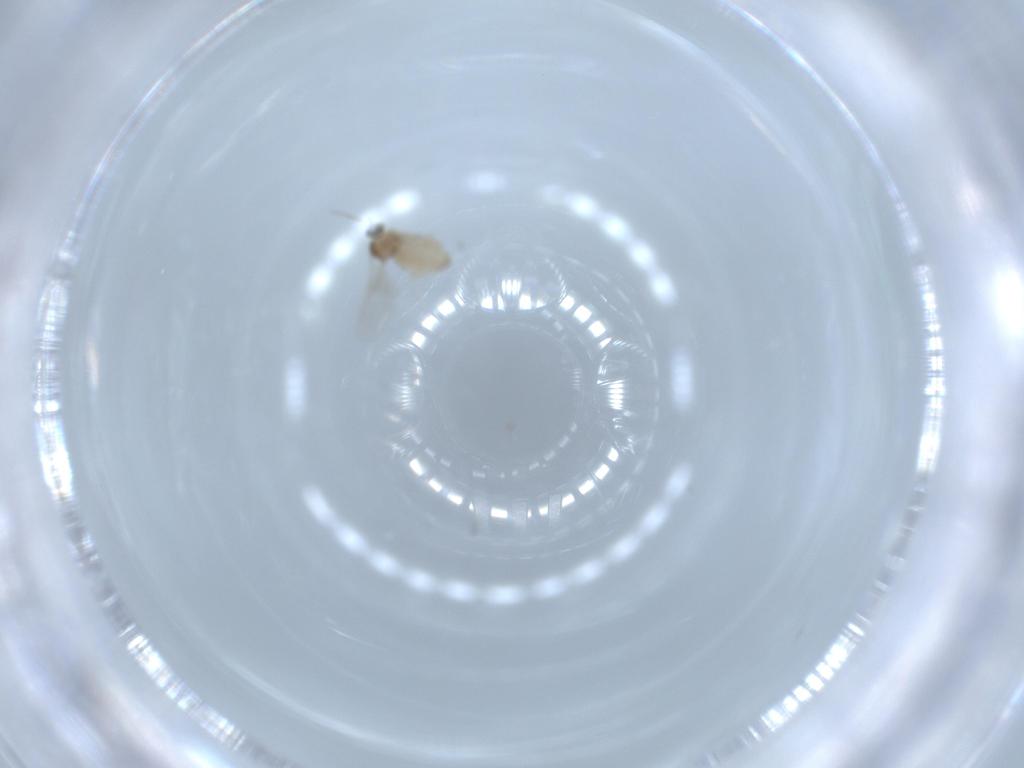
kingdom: Animalia
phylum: Arthropoda
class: Insecta
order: Diptera
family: Cecidomyiidae
